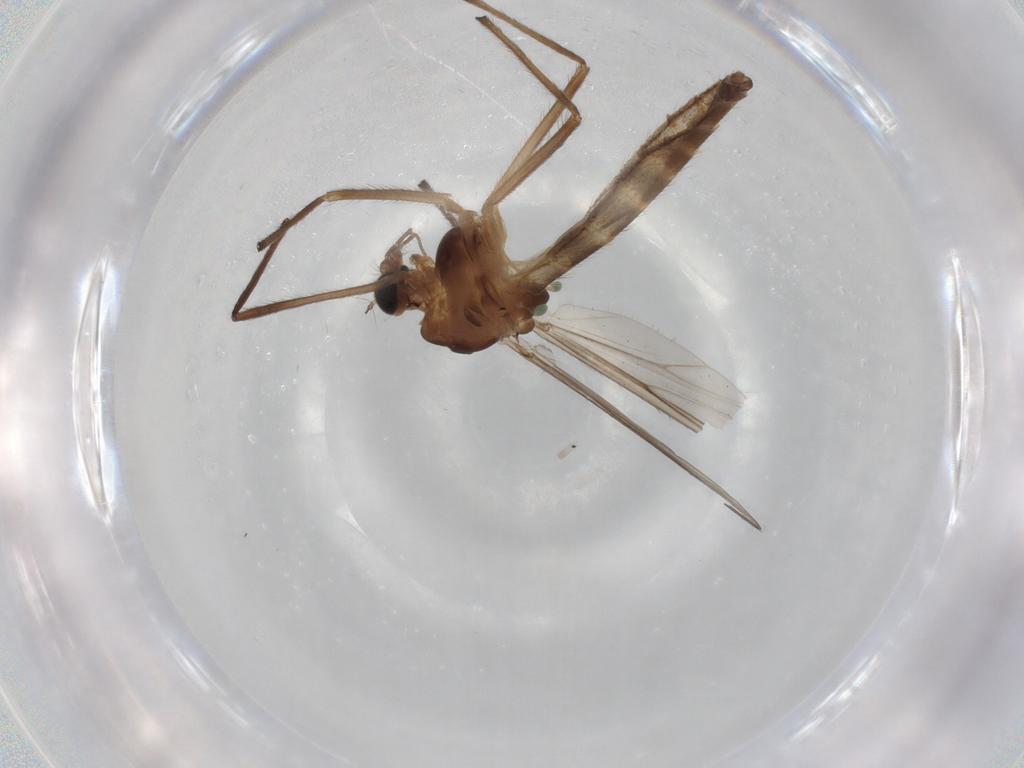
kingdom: Animalia
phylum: Arthropoda
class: Insecta
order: Diptera
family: Chironomidae
